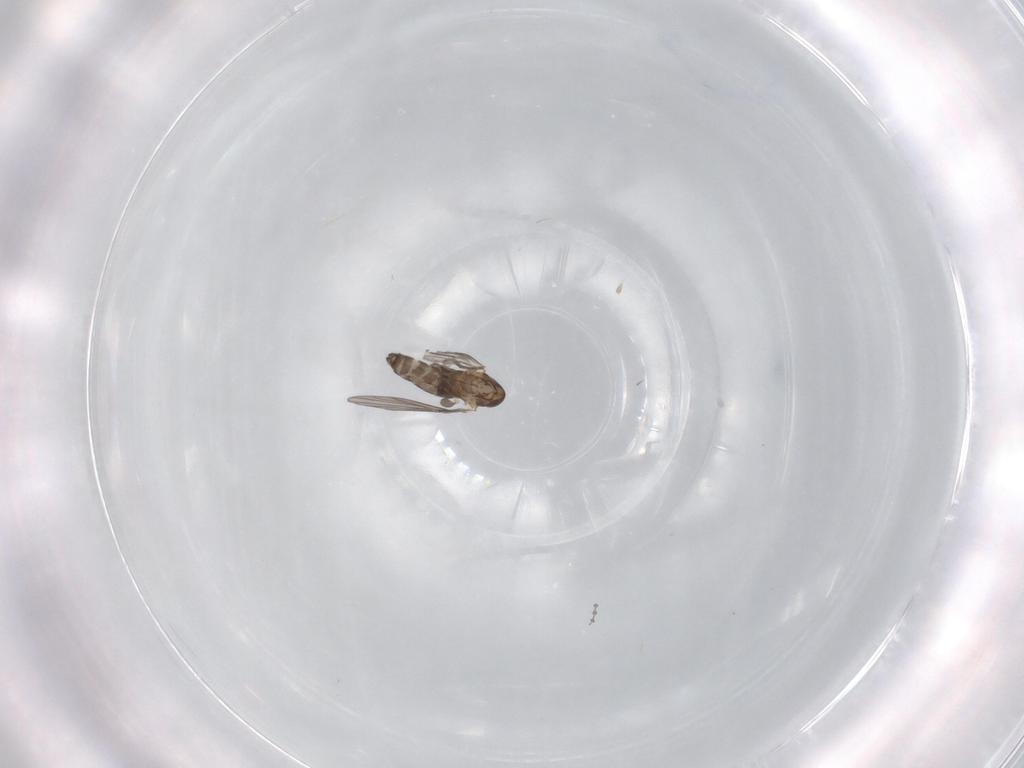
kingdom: Animalia
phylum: Arthropoda
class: Insecta
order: Diptera
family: Psychodidae
